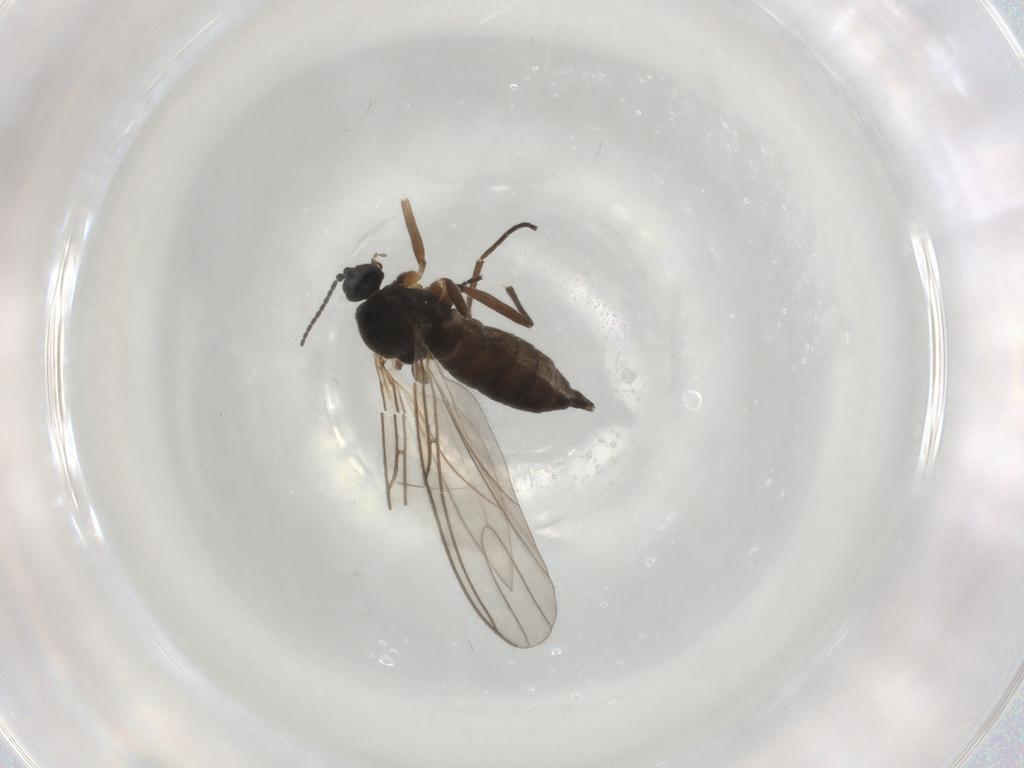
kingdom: Animalia
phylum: Arthropoda
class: Insecta
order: Diptera
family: Sciaridae
